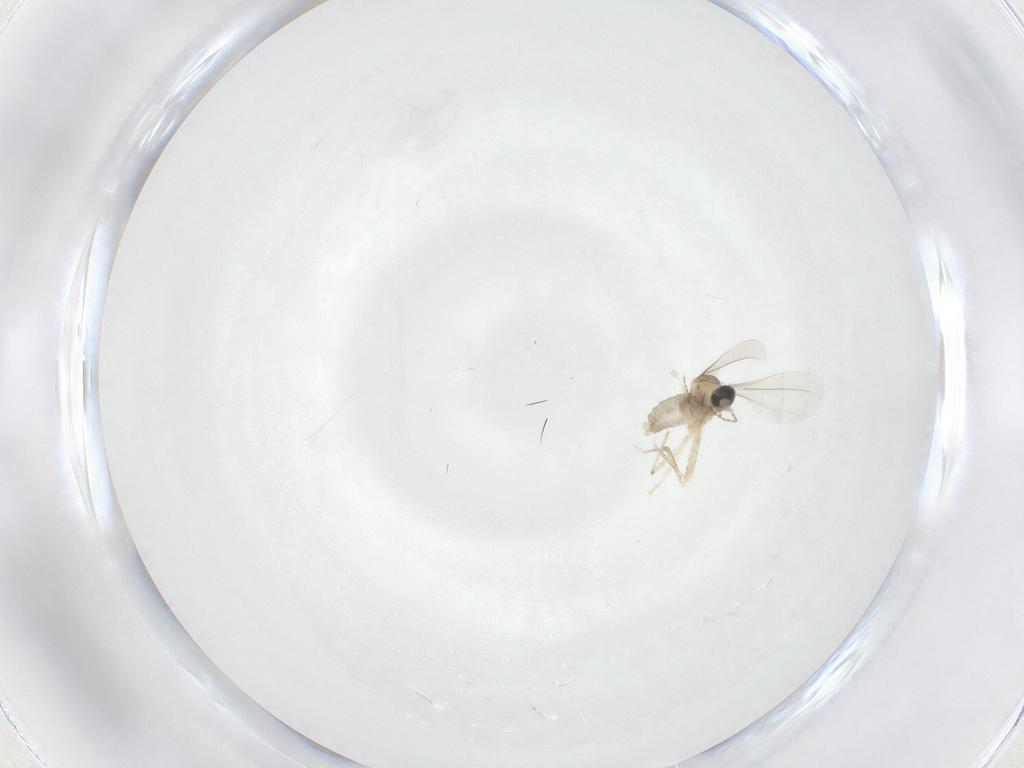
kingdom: Animalia
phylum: Arthropoda
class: Insecta
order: Diptera
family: Cecidomyiidae
